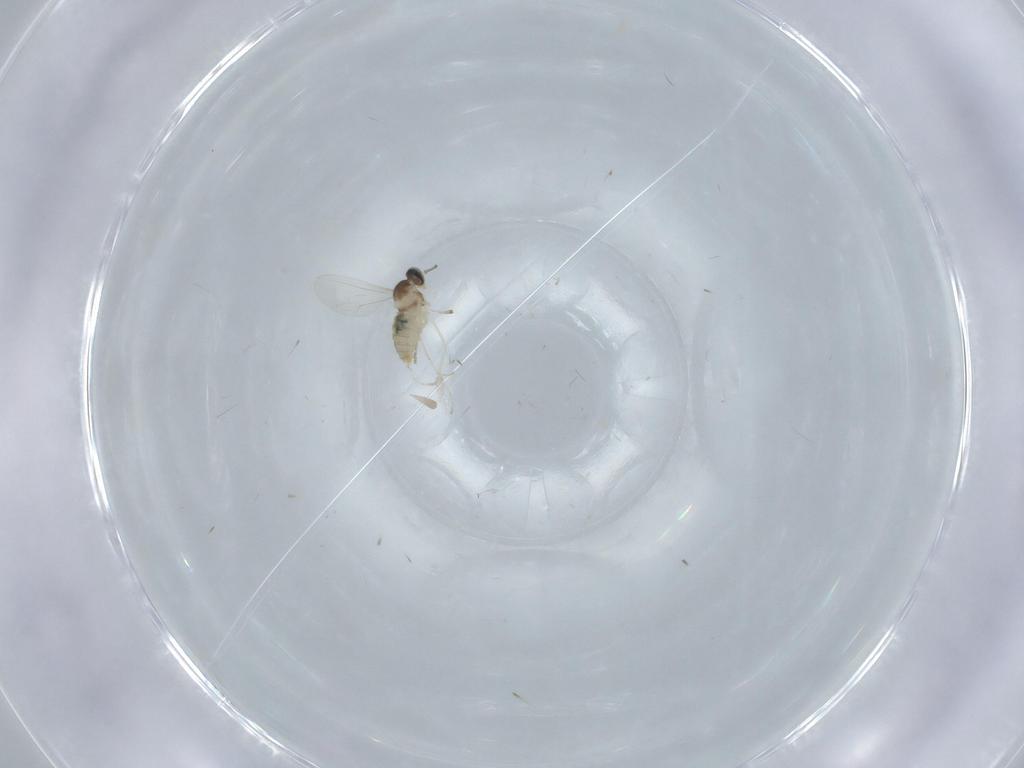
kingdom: Animalia
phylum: Arthropoda
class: Insecta
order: Diptera
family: Cecidomyiidae
